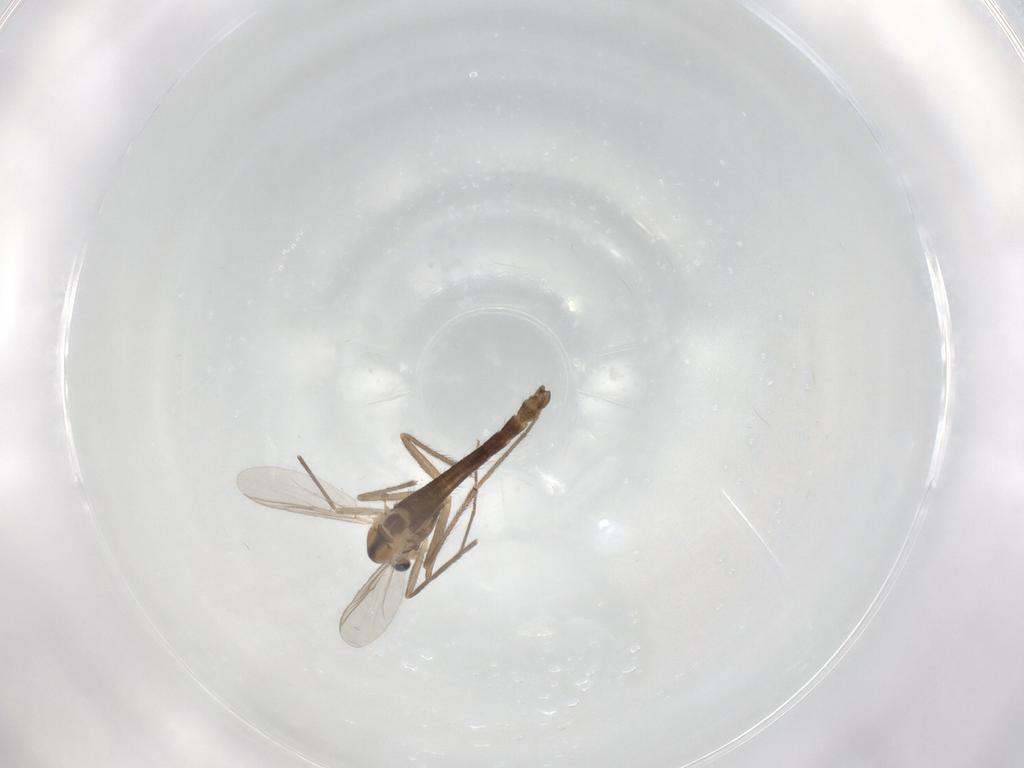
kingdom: Animalia
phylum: Arthropoda
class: Insecta
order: Diptera
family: Chironomidae
